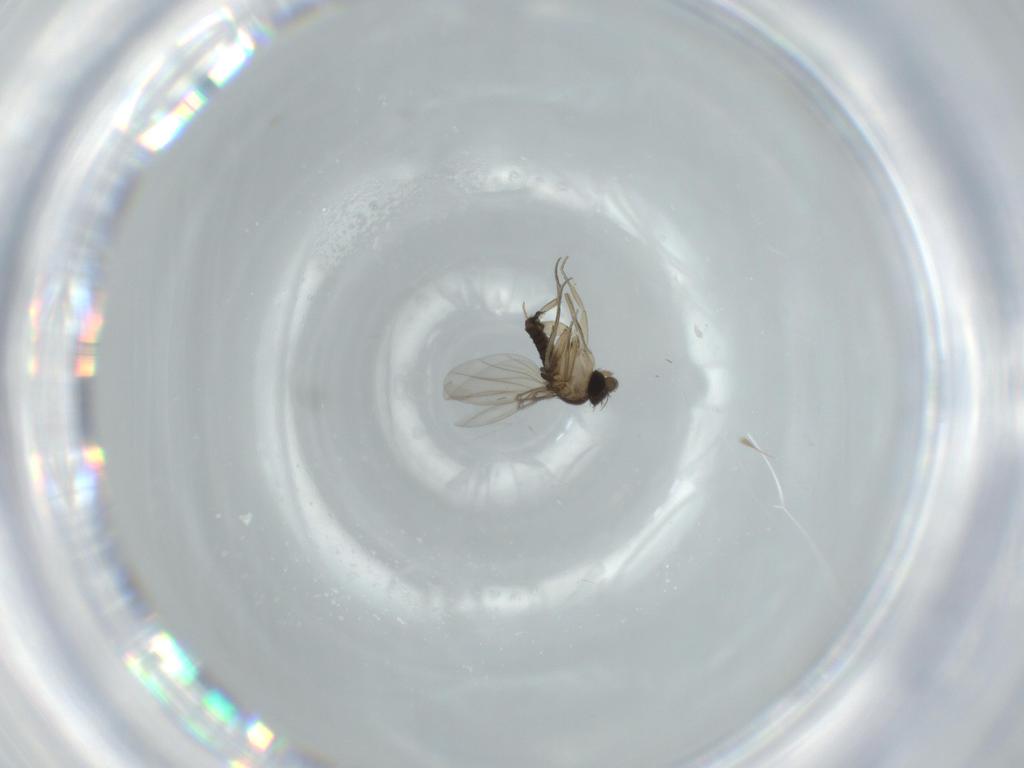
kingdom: Animalia
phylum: Arthropoda
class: Insecta
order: Diptera
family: Phoridae
